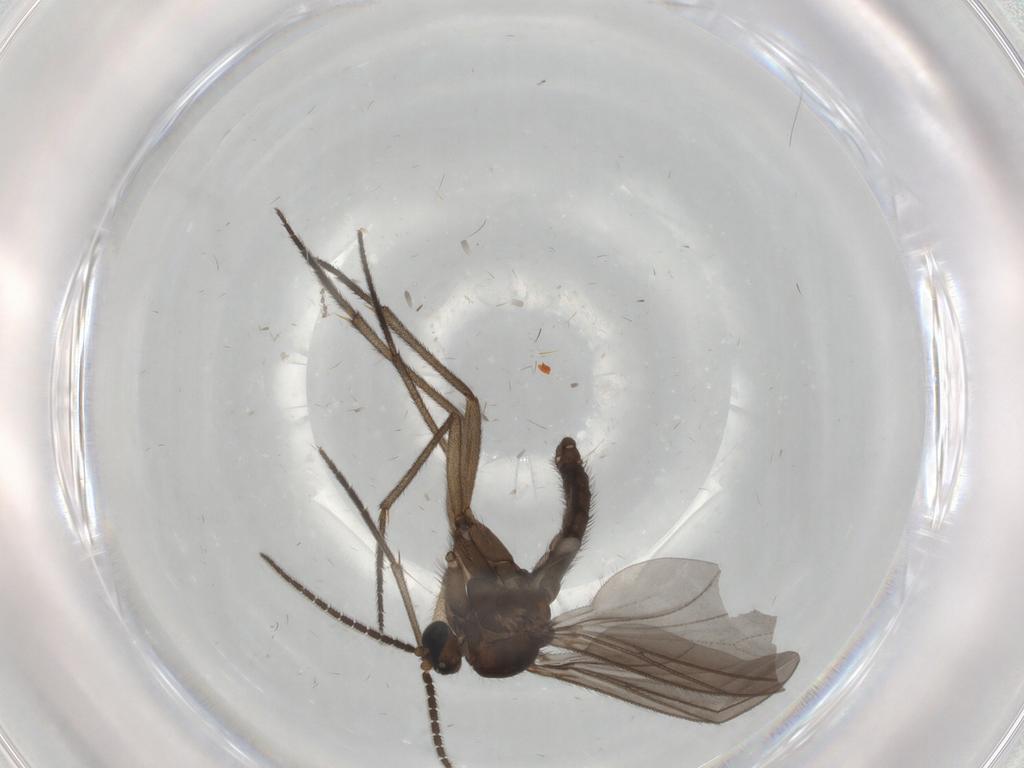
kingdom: Animalia
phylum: Arthropoda
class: Insecta
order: Diptera
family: Sciaridae
